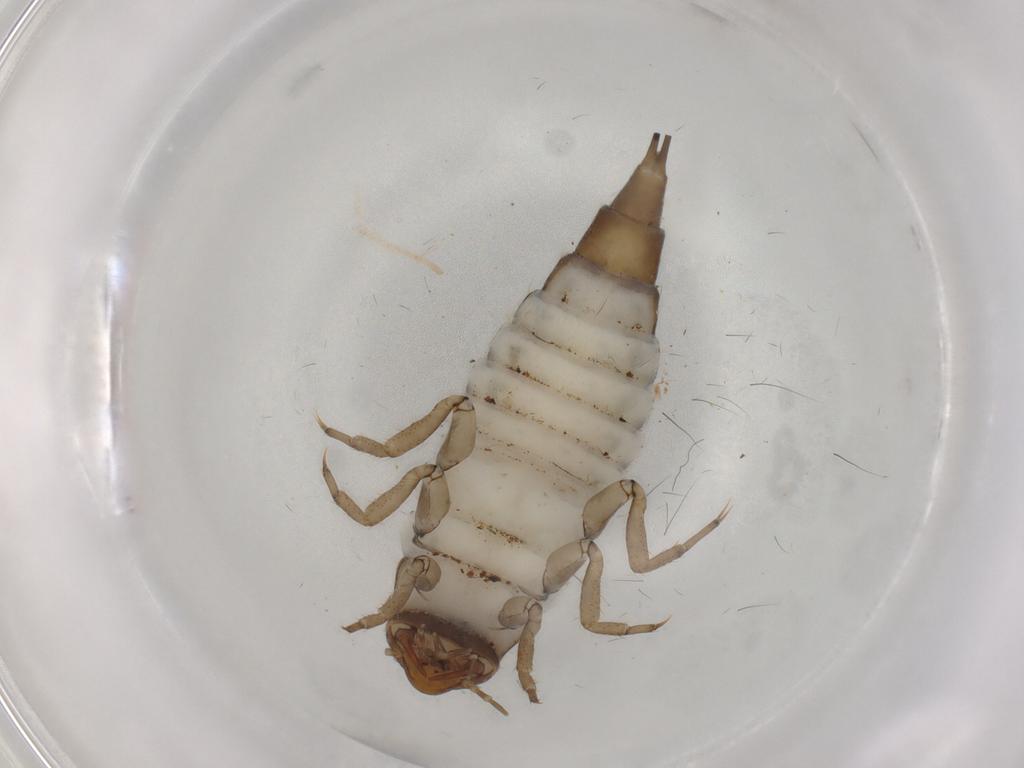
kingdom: Animalia
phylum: Arthropoda
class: Insecta
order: Coleoptera
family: Dytiscidae
